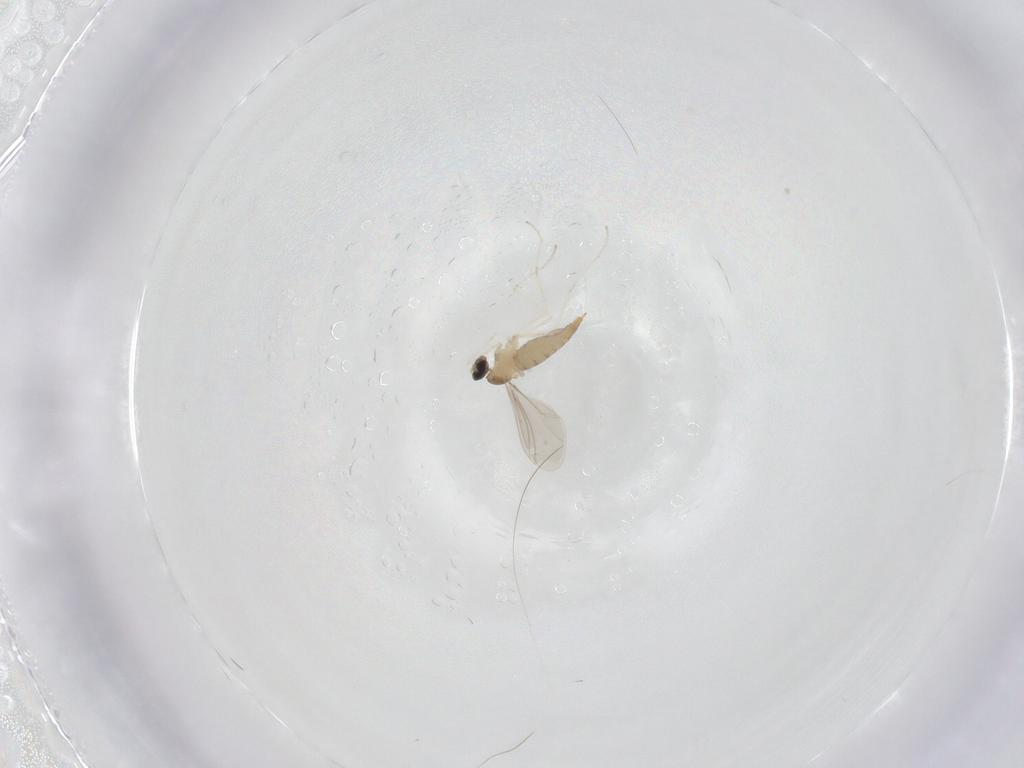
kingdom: Animalia
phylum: Arthropoda
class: Insecta
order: Diptera
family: Cecidomyiidae
